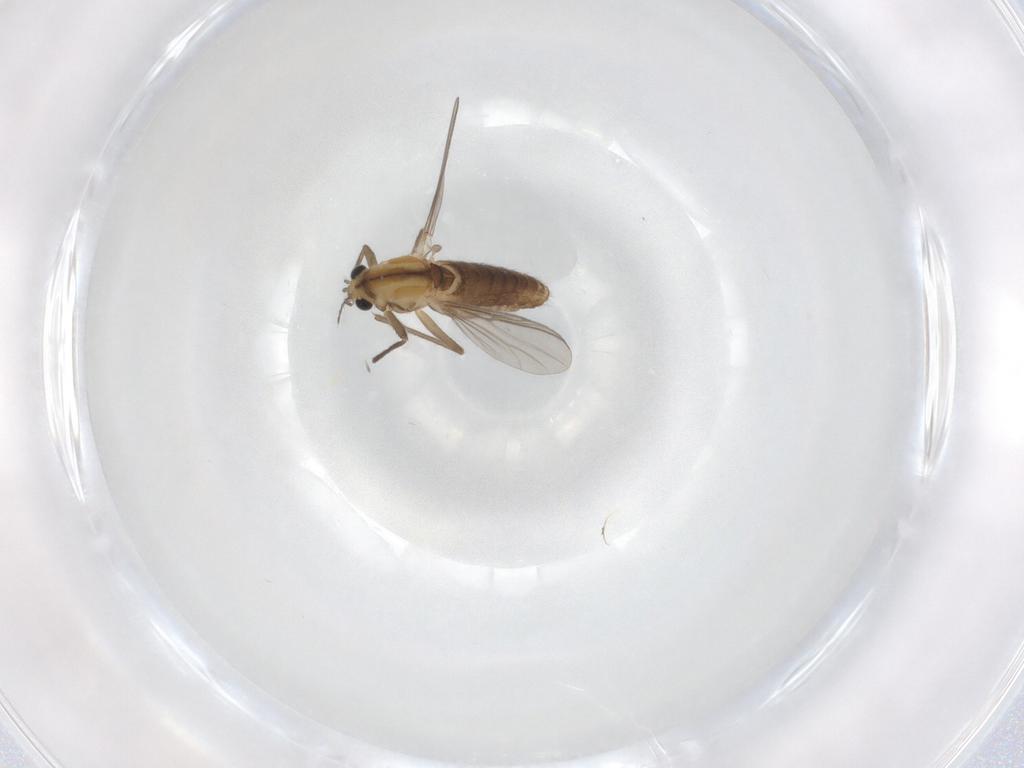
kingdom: Animalia
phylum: Arthropoda
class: Insecta
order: Diptera
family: Chironomidae
